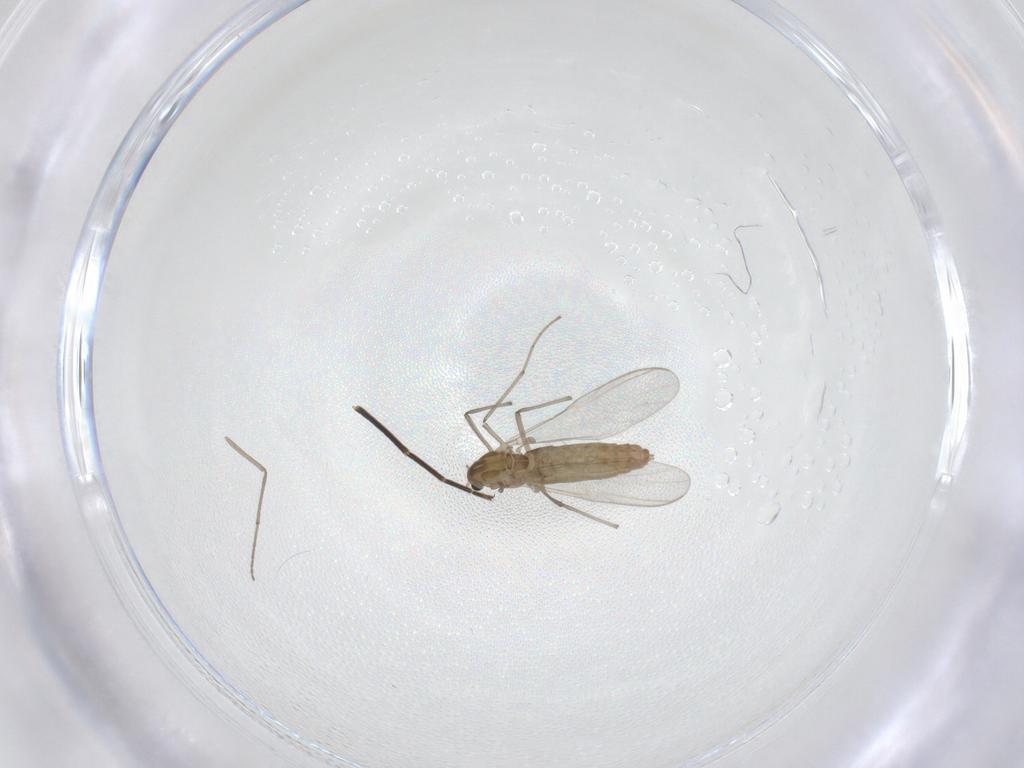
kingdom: Animalia
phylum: Arthropoda
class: Insecta
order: Diptera
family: Chironomidae
